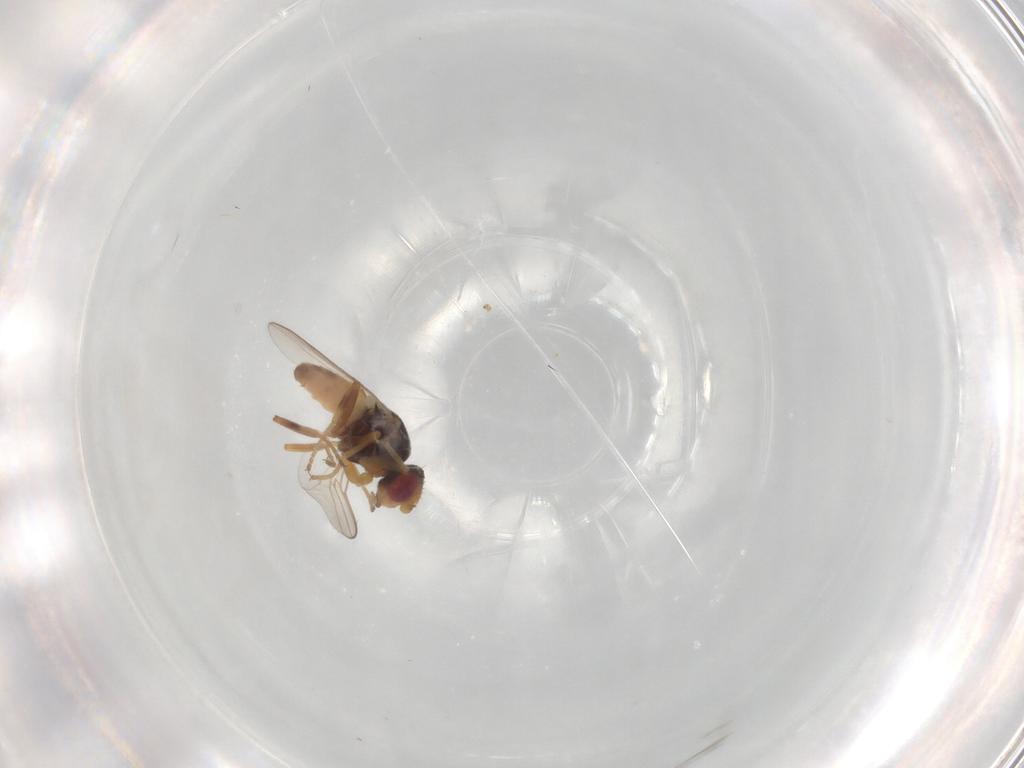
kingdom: Animalia
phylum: Arthropoda
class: Insecta
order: Diptera
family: Chloropidae
